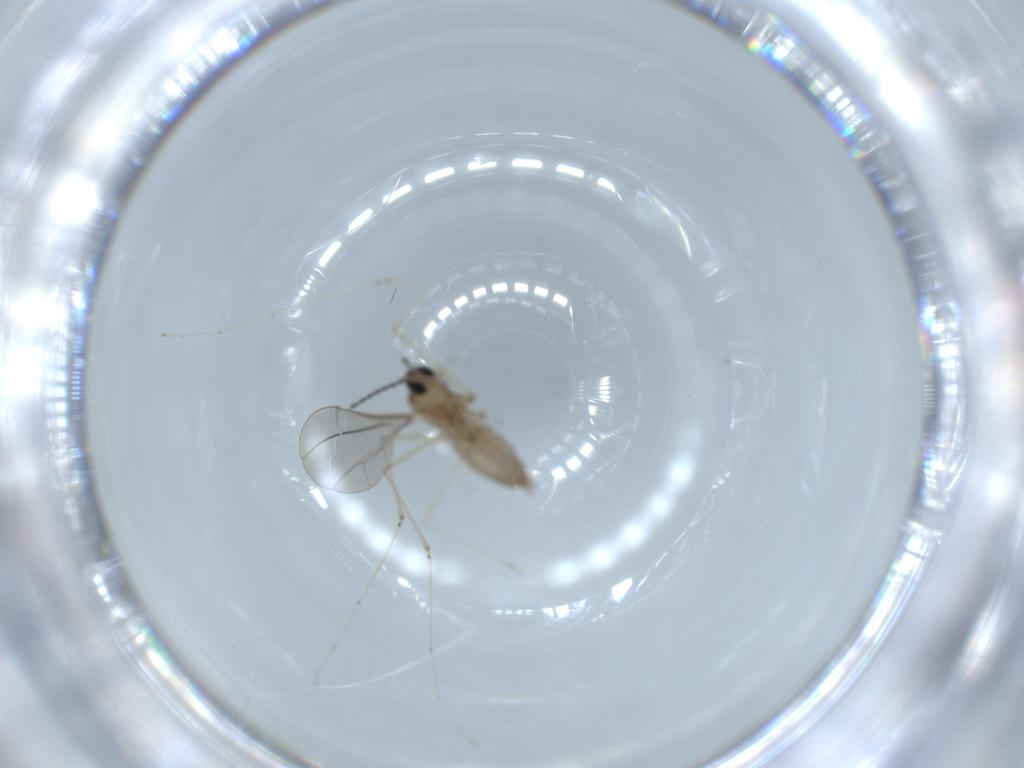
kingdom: Animalia
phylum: Arthropoda
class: Insecta
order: Diptera
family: Cecidomyiidae
